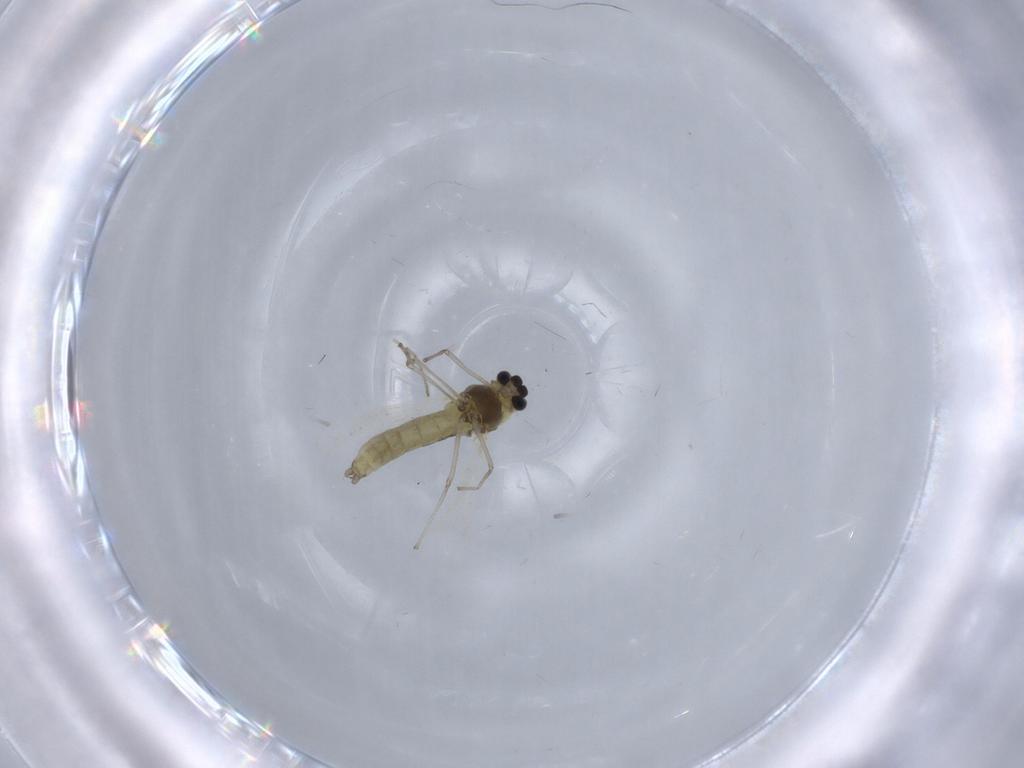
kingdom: Animalia
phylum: Arthropoda
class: Insecta
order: Diptera
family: Chironomidae
